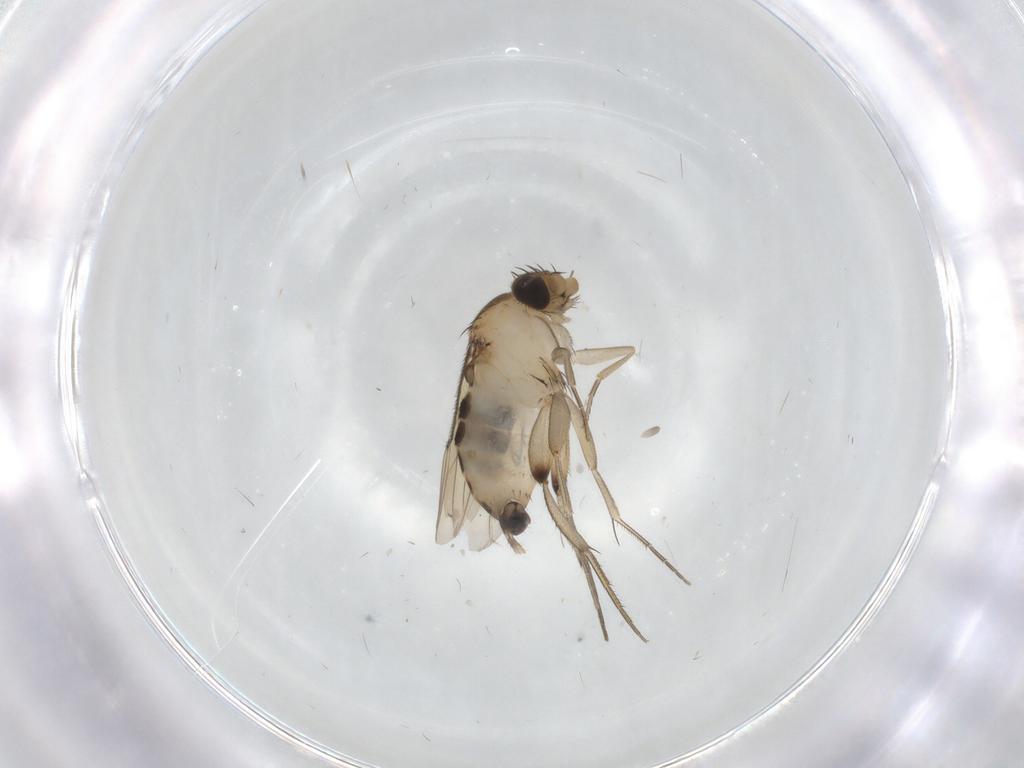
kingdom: Animalia
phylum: Arthropoda
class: Insecta
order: Diptera
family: Phoridae
